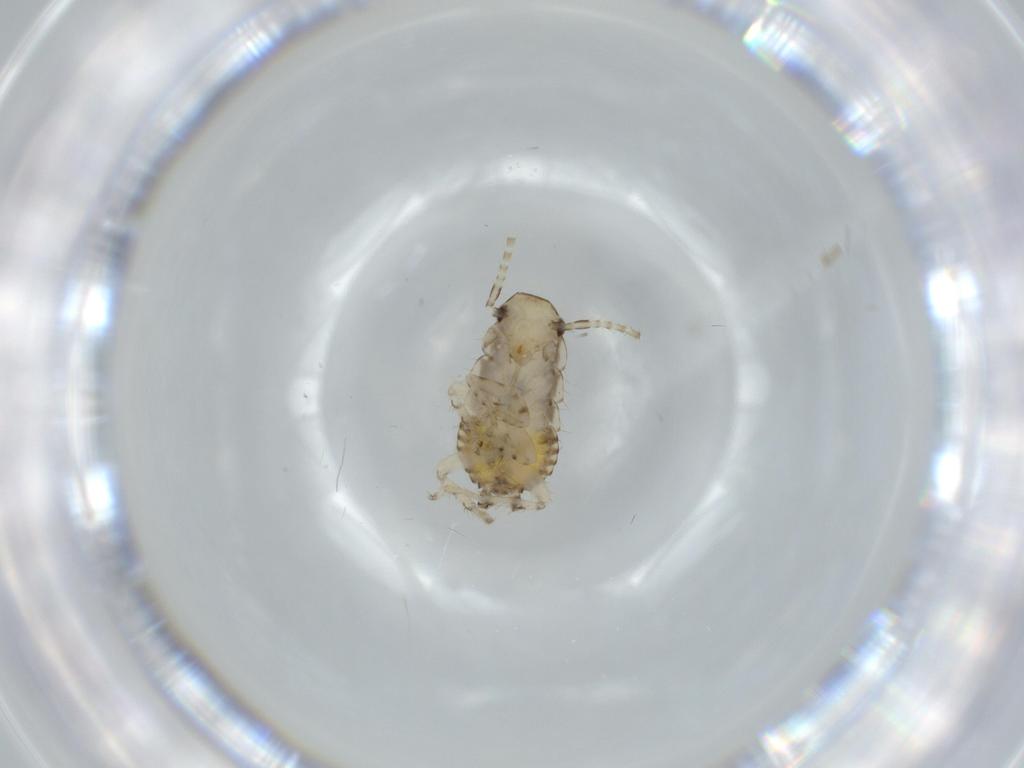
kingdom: Animalia
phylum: Arthropoda
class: Insecta
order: Blattodea
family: Ectobiidae
